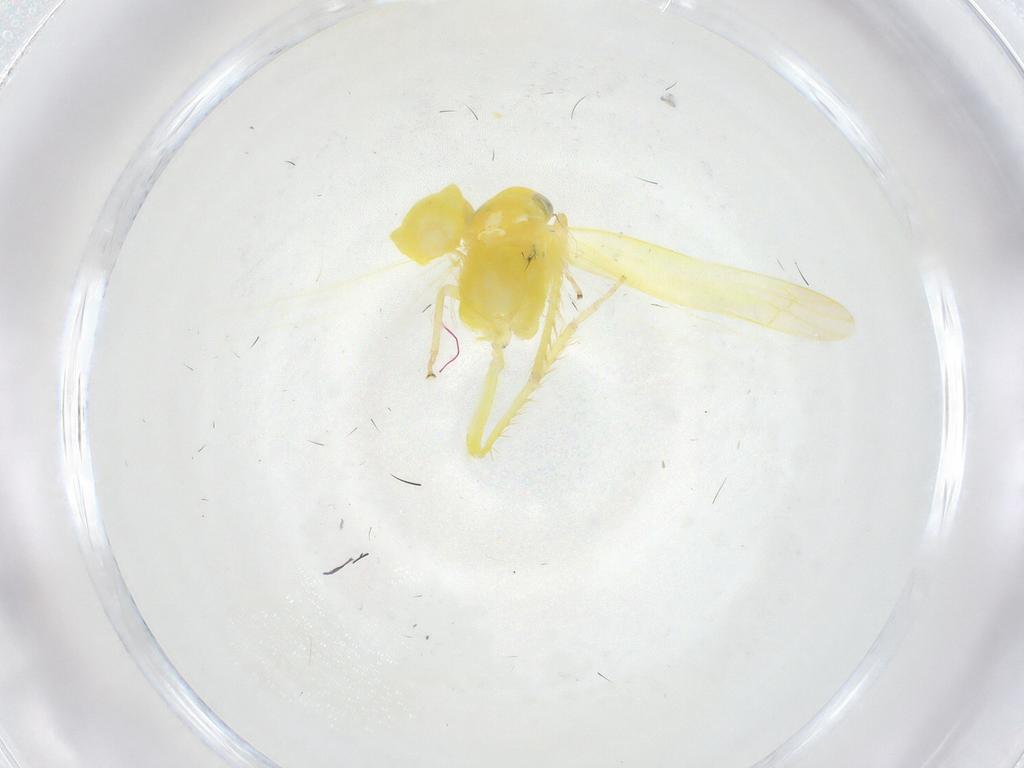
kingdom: Animalia
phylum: Arthropoda
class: Insecta
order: Hemiptera
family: Cicadellidae
